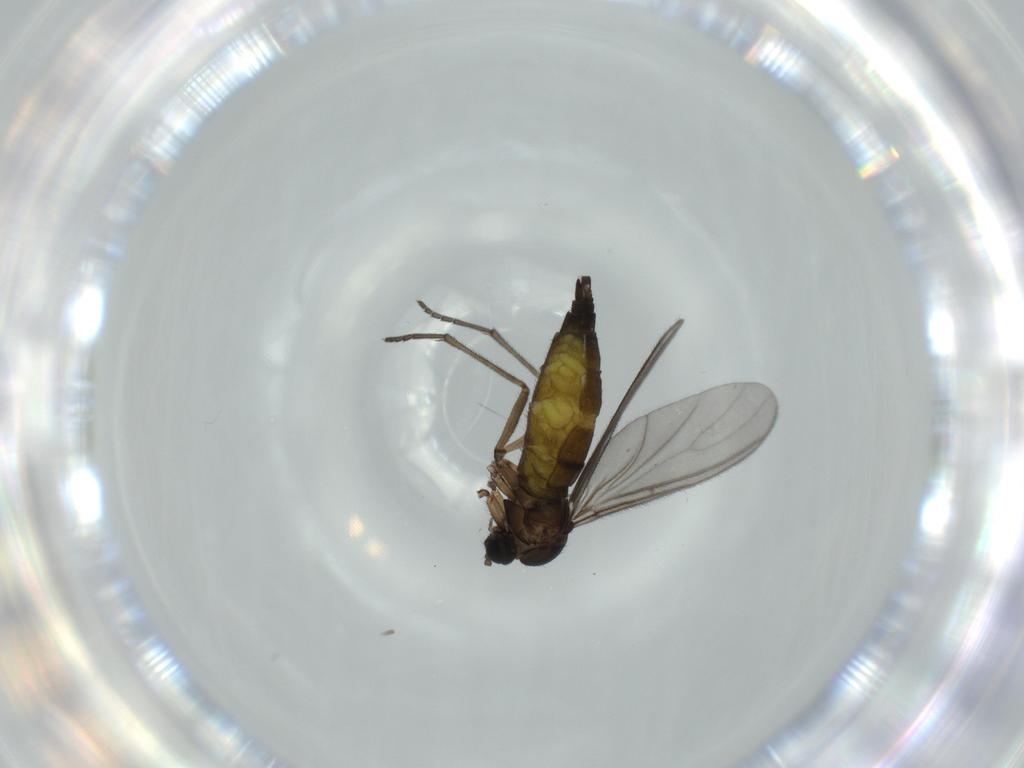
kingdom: Animalia
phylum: Arthropoda
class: Insecta
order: Diptera
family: Sciaridae
